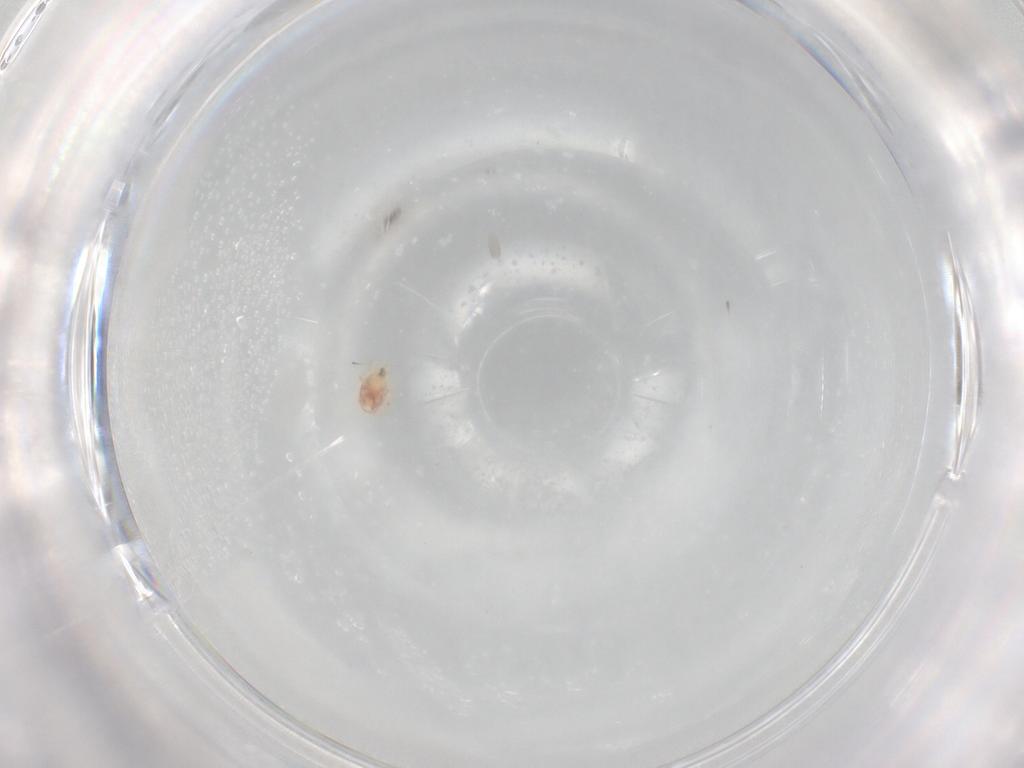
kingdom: Animalia
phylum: Arthropoda
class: Arachnida
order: Mesostigmata
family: Phytoseiidae
